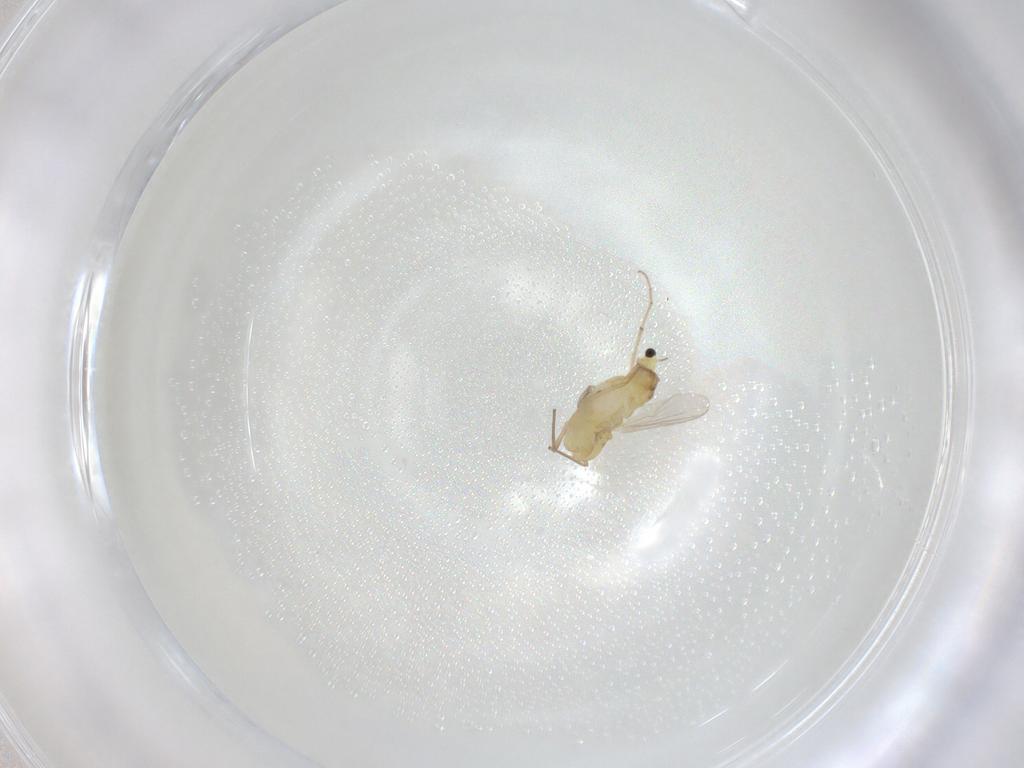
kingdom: Animalia
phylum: Arthropoda
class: Insecta
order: Diptera
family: Chironomidae
